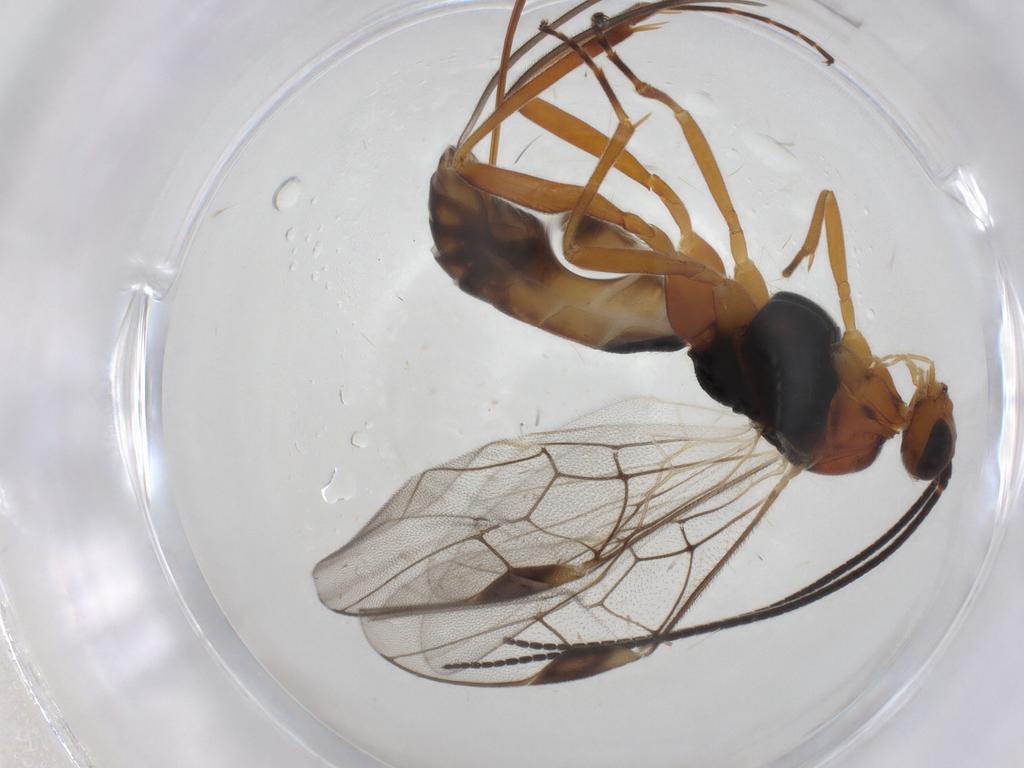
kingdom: Animalia
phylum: Arthropoda
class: Insecta
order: Hymenoptera
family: Braconidae
